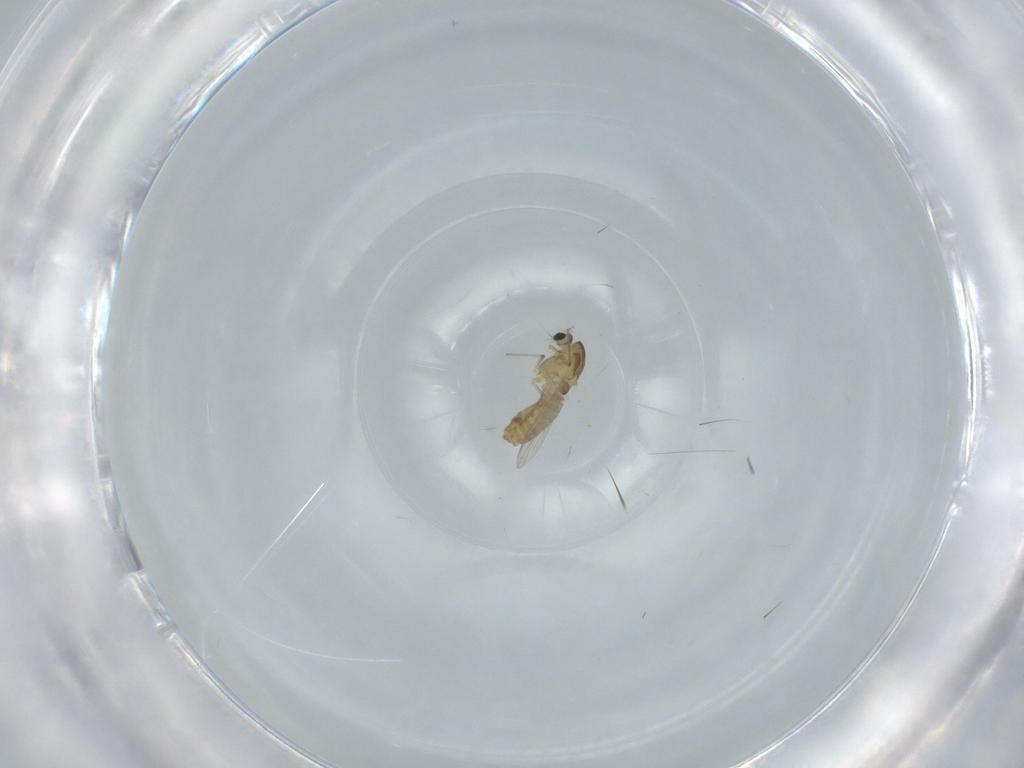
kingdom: Animalia
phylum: Arthropoda
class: Insecta
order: Diptera
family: Chironomidae
